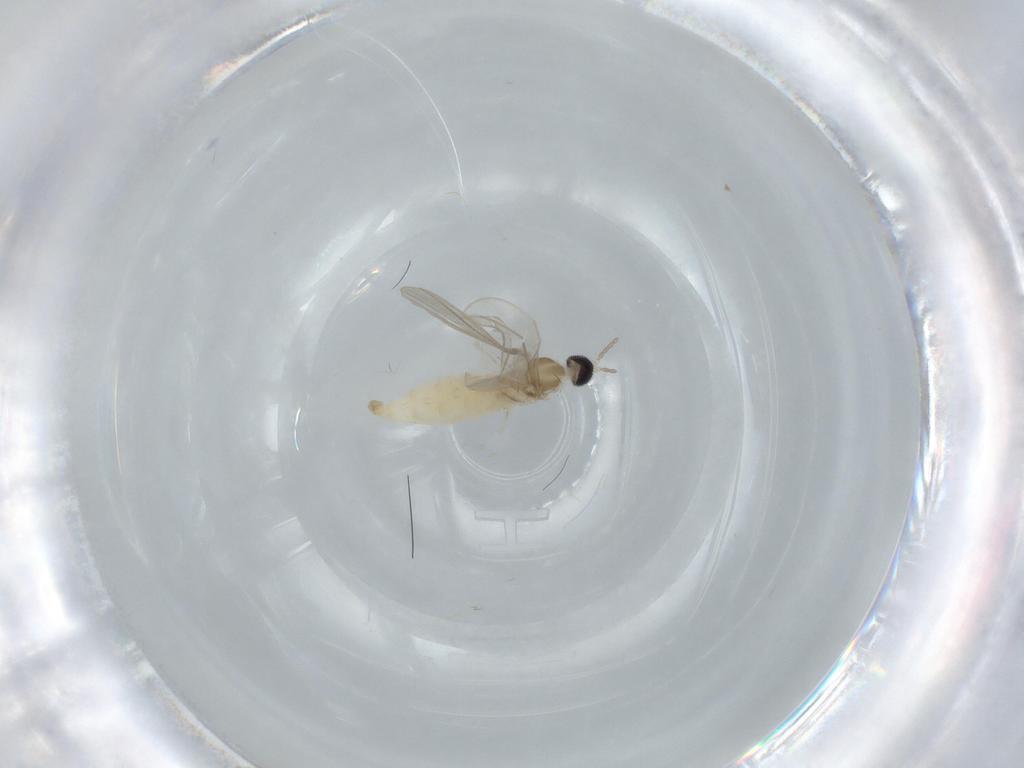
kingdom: Animalia
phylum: Arthropoda
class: Insecta
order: Diptera
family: Cecidomyiidae
